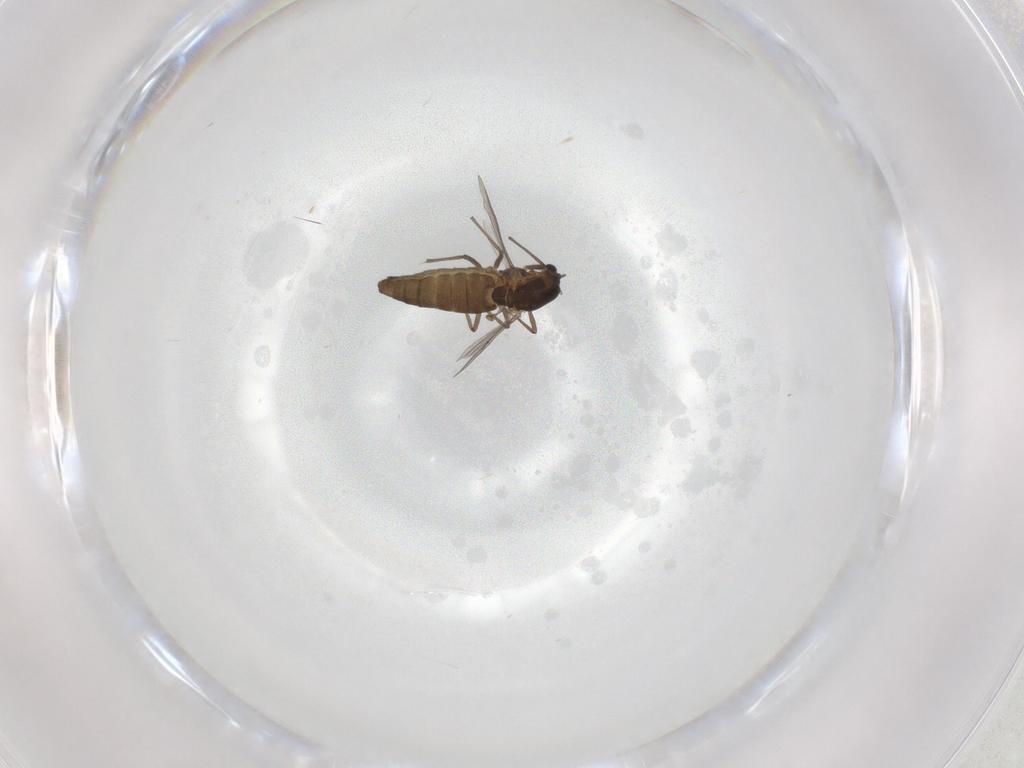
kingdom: Animalia
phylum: Arthropoda
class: Insecta
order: Diptera
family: Chironomidae
